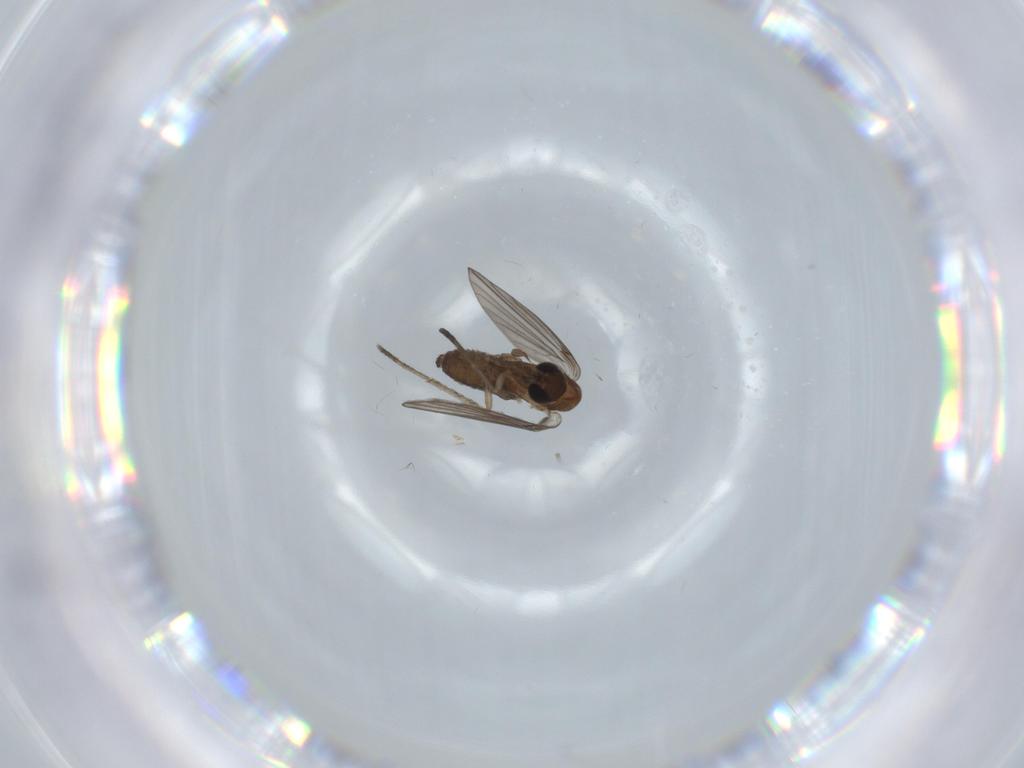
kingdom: Animalia
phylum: Arthropoda
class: Insecta
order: Diptera
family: Psychodidae
